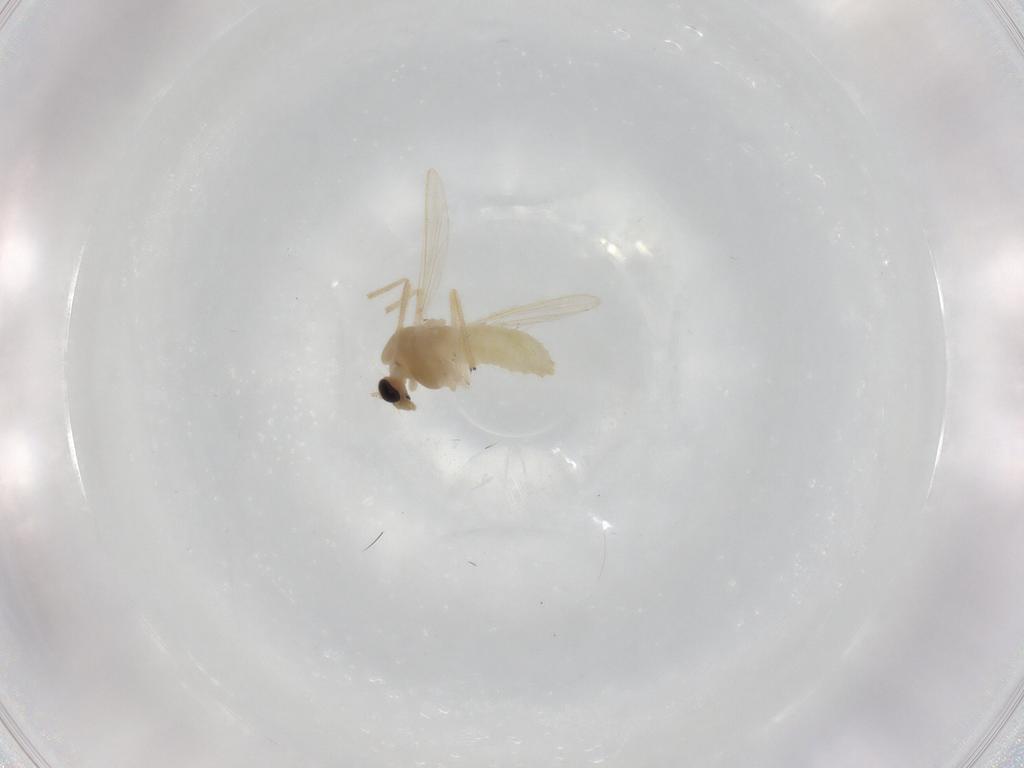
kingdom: Animalia
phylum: Arthropoda
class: Insecta
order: Diptera
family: Chironomidae
